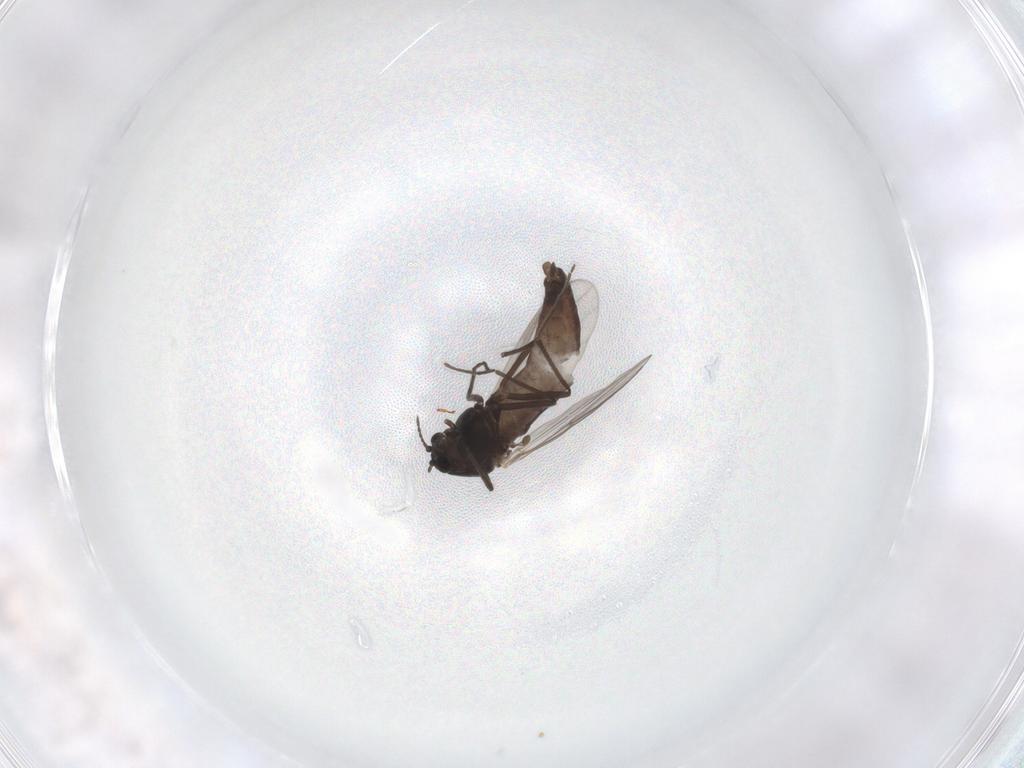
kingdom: Animalia
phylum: Arthropoda
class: Insecta
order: Diptera
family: Chironomidae
